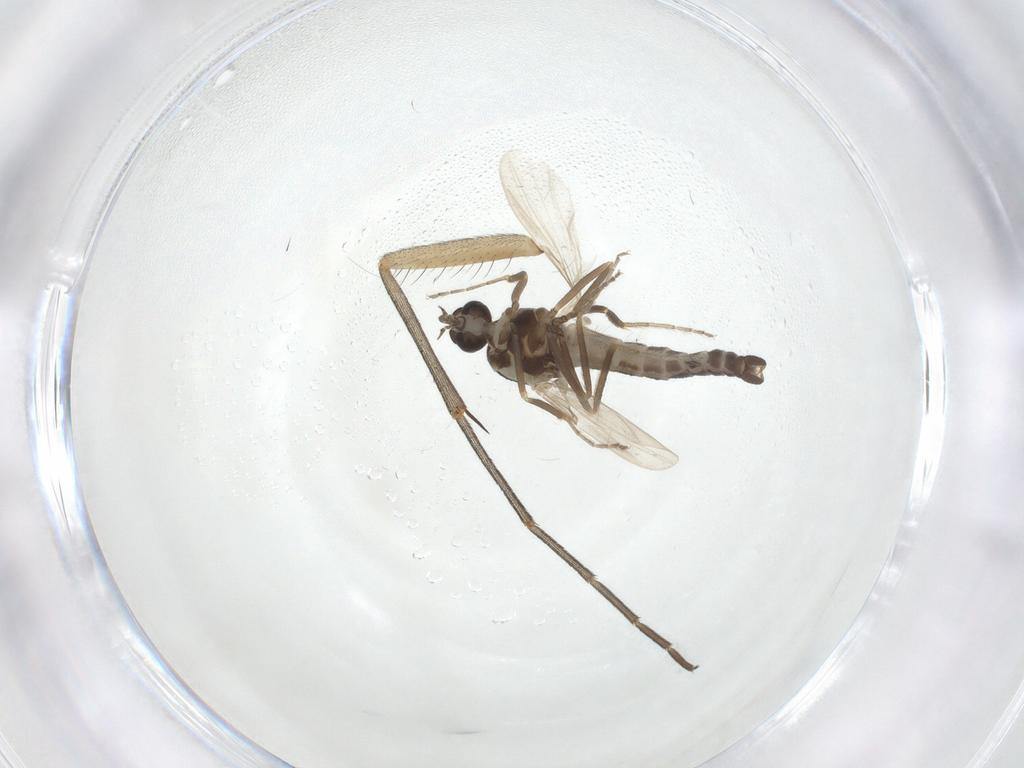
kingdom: Animalia
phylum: Arthropoda
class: Insecta
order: Diptera
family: Ceratopogonidae
